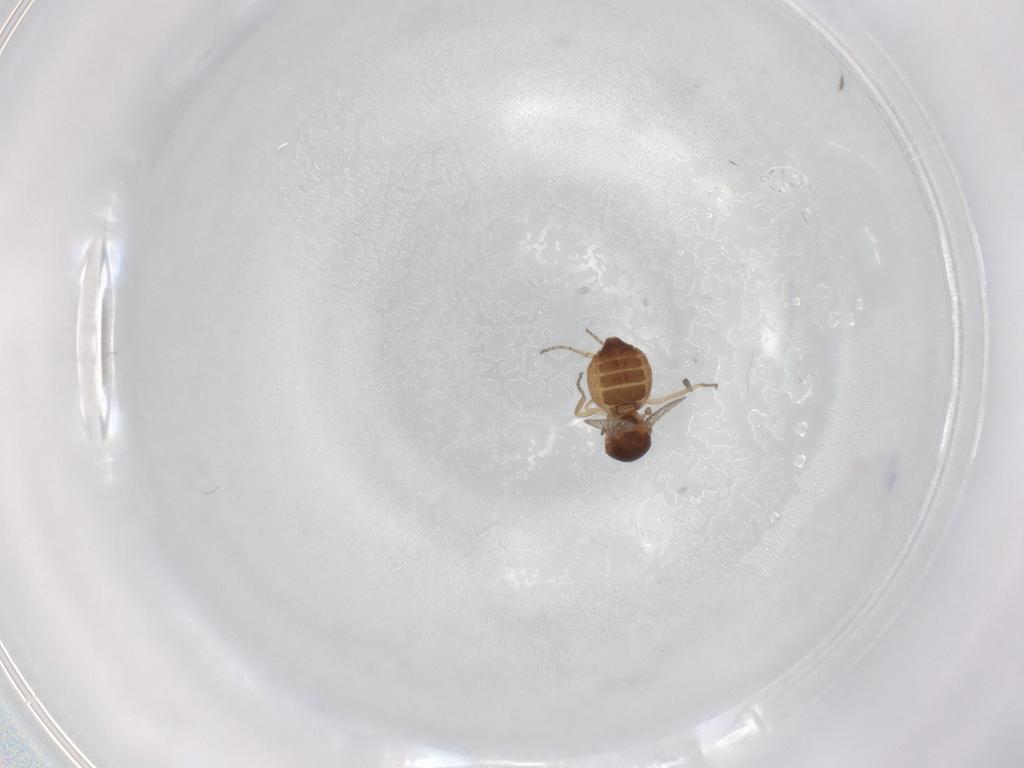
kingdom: Animalia
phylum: Arthropoda
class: Insecta
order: Diptera
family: Ceratopogonidae
